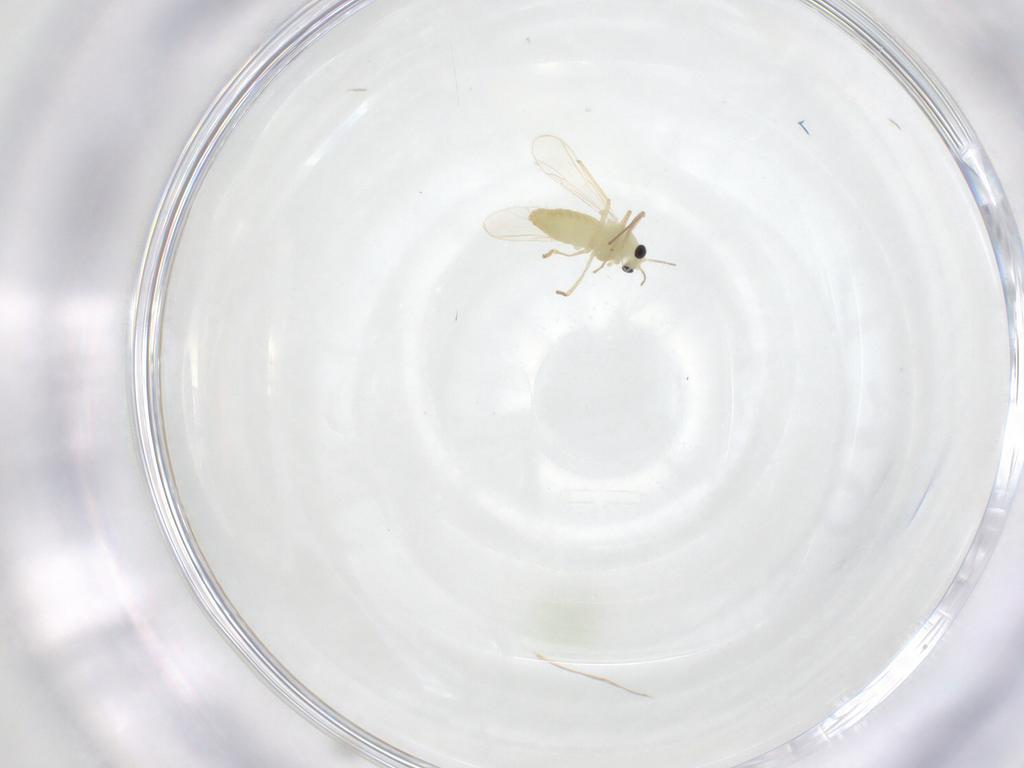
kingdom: Animalia
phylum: Arthropoda
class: Insecta
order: Diptera
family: Chironomidae
